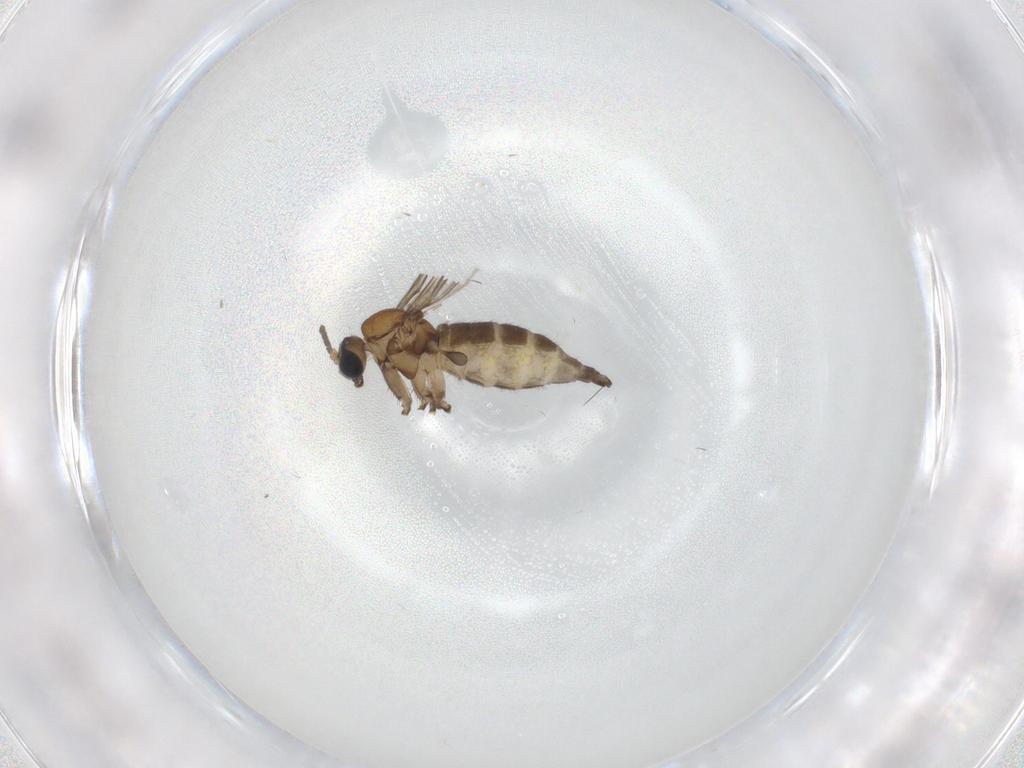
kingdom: Animalia
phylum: Arthropoda
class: Insecta
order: Diptera
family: Sciaridae
